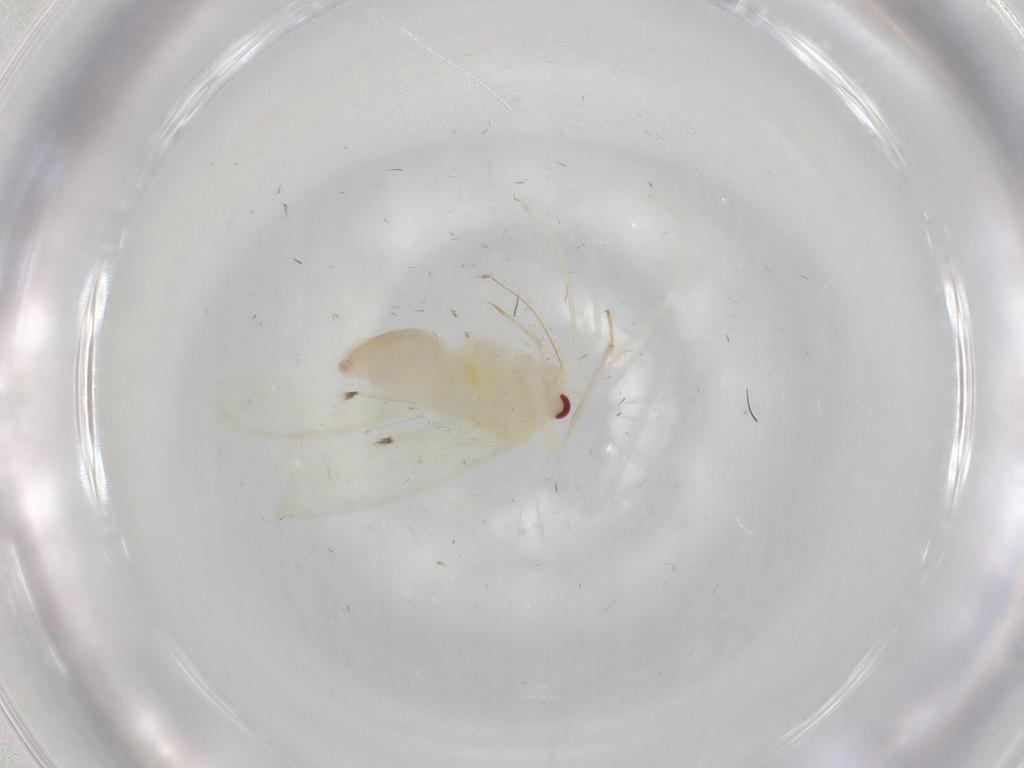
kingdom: Animalia
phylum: Arthropoda
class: Insecta
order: Hemiptera
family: Miridae
